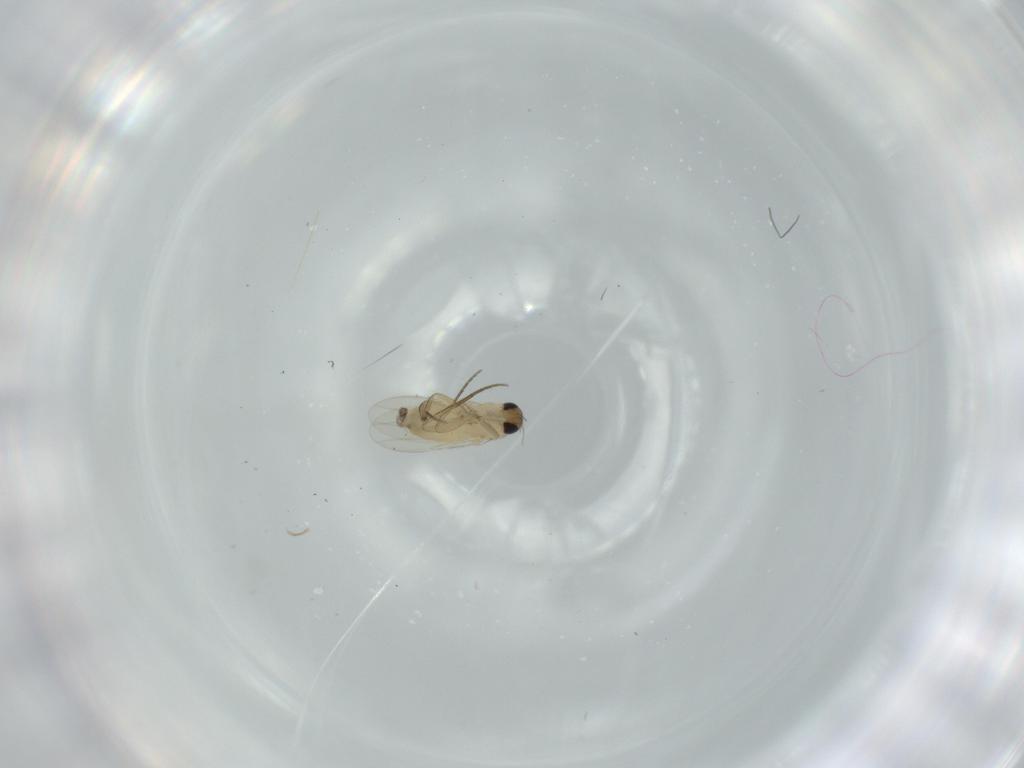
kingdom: Animalia
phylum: Arthropoda
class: Insecta
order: Diptera
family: Phoridae
